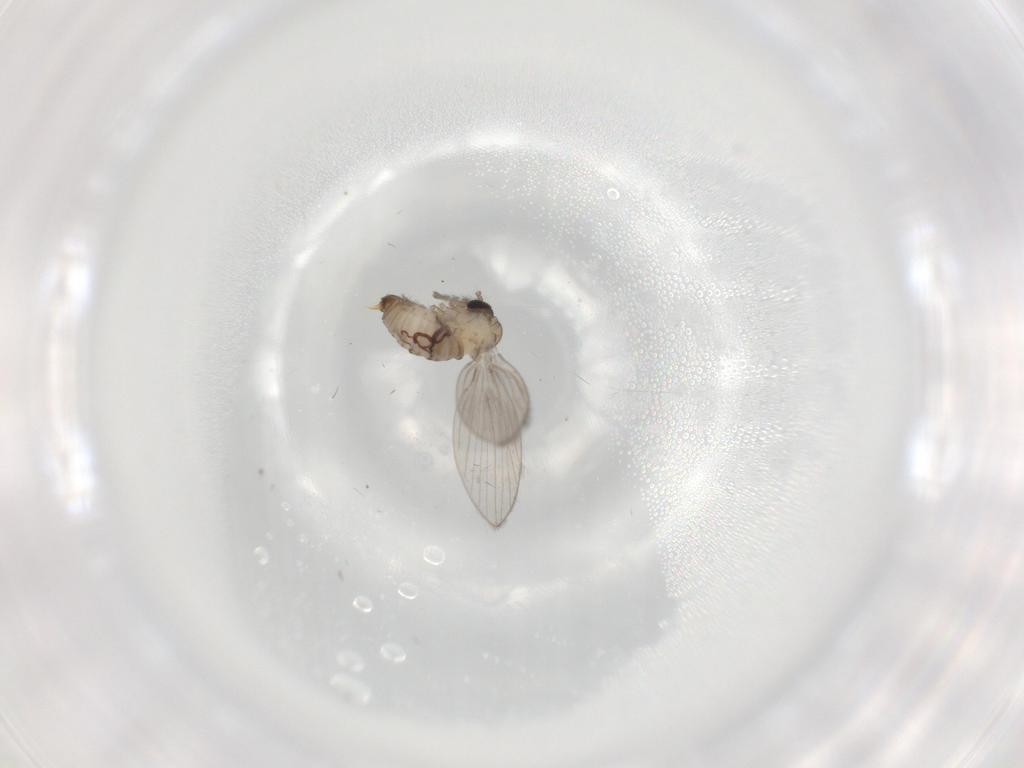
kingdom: Animalia
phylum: Arthropoda
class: Insecta
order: Diptera
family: Psychodidae
